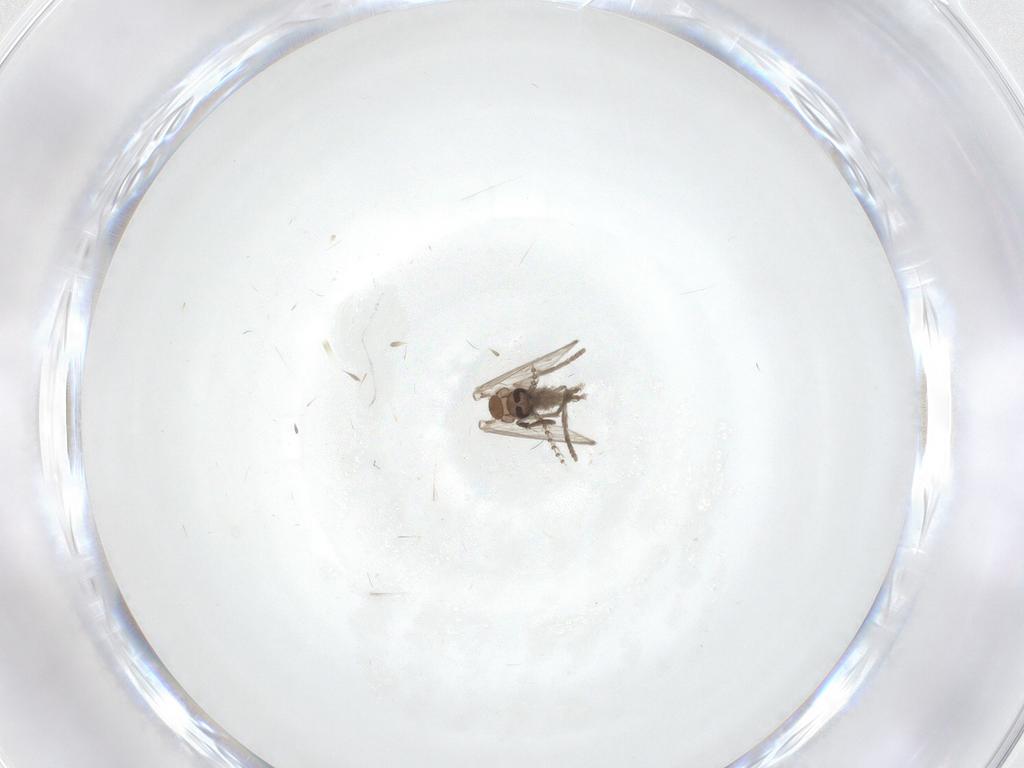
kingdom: Animalia
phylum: Arthropoda
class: Insecta
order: Diptera
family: Psychodidae
